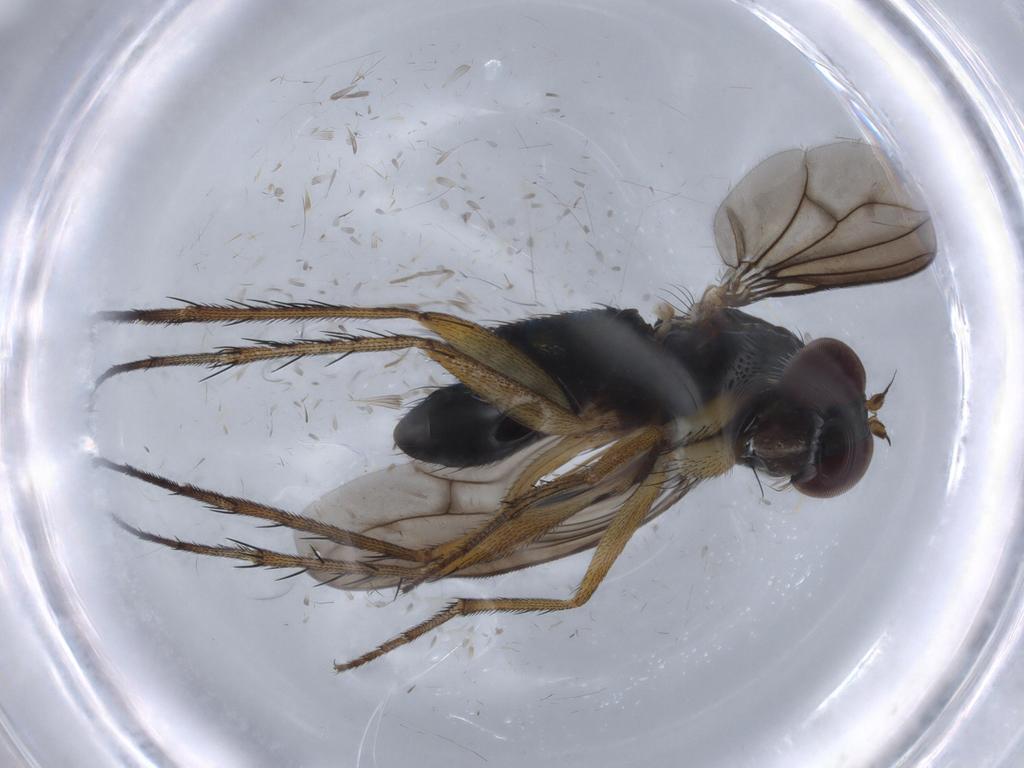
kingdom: Animalia
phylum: Arthropoda
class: Insecta
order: Diptera
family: Dolichopodidae
